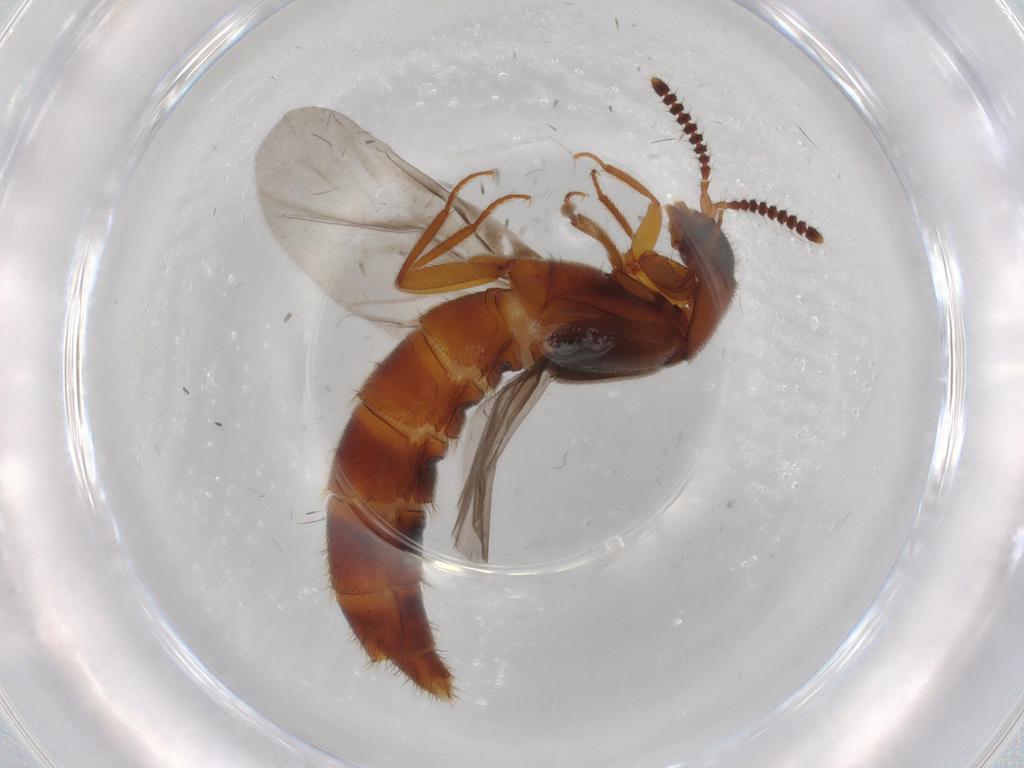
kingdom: Animalia
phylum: Arthropoda
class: Insecta
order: Coleoptera
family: Staphylinidae
